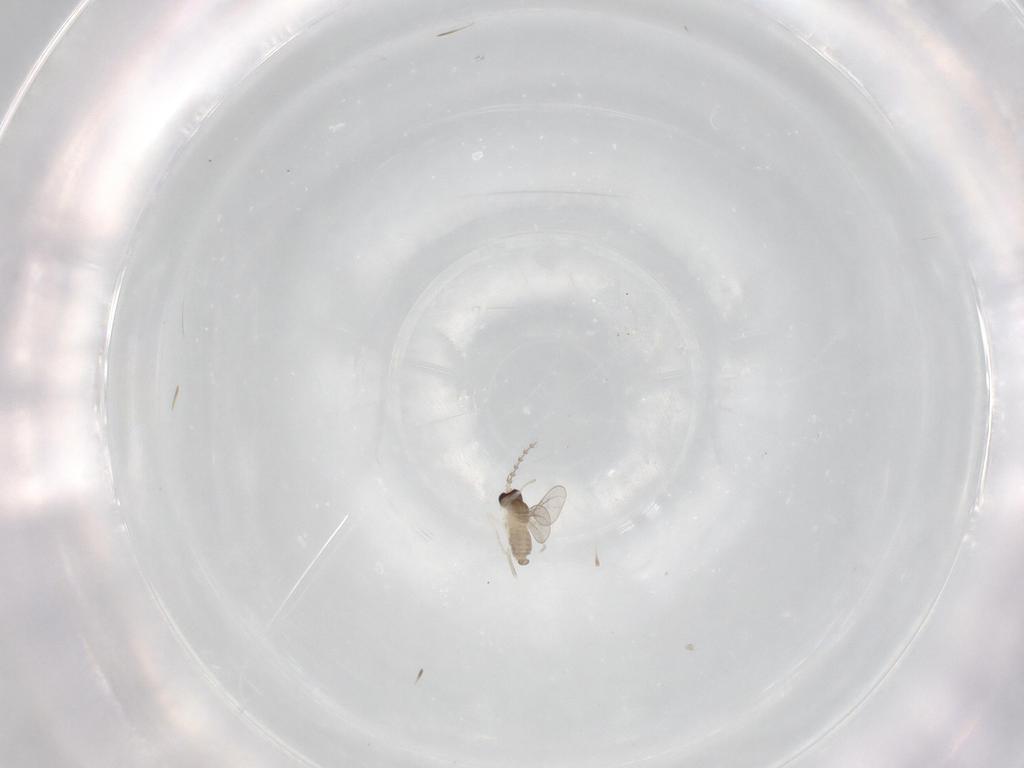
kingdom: Animalia
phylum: Arthropoda
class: Insecta
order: Diptera
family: Cecidomyiidae
